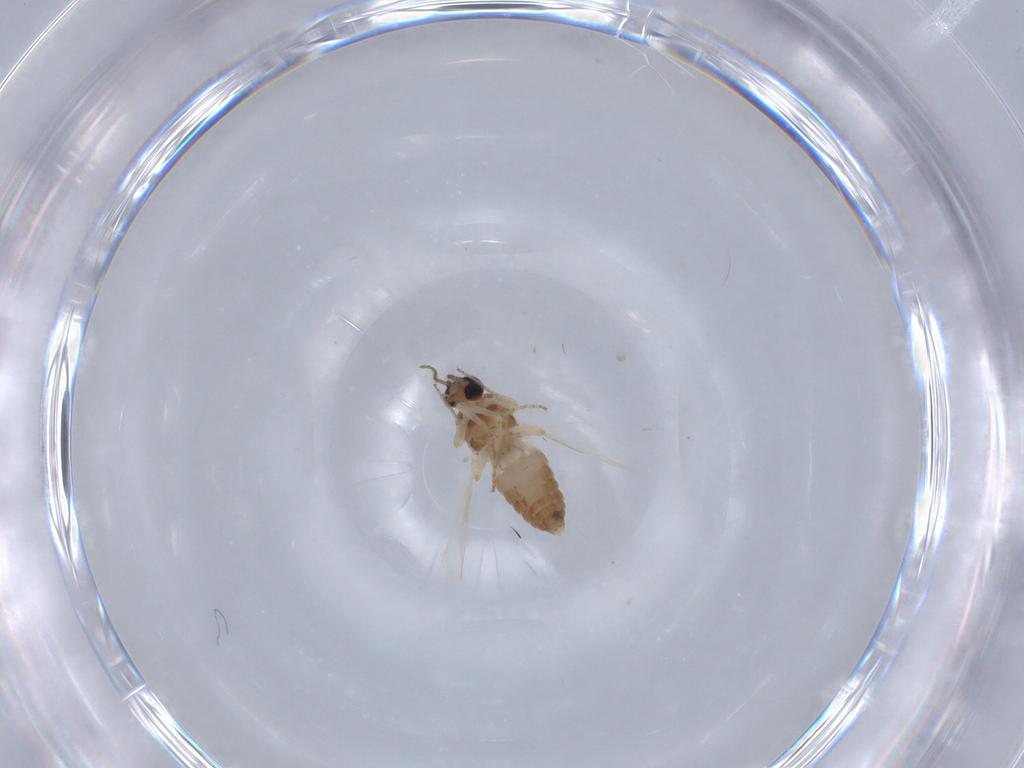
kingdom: Animalia
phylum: Arthropoda
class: Insecta
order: Diptera
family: Ceratopogonidae
